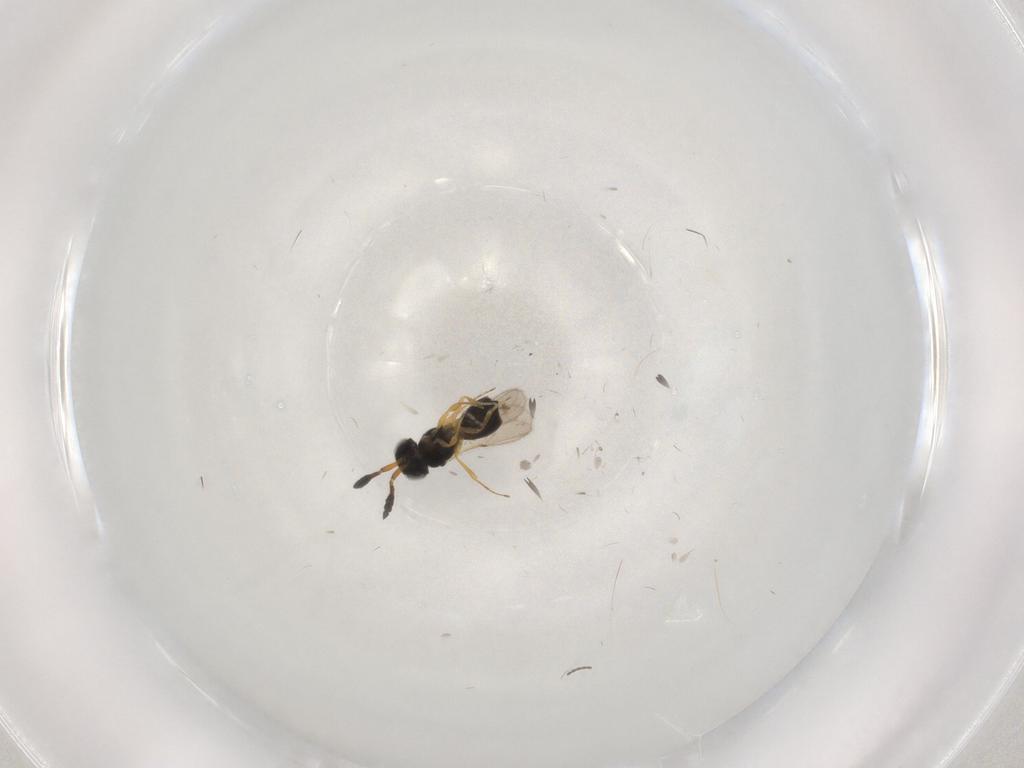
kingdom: Animalia
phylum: Arthropoda
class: Insecta
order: Hymenoptera
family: Scelionidae
